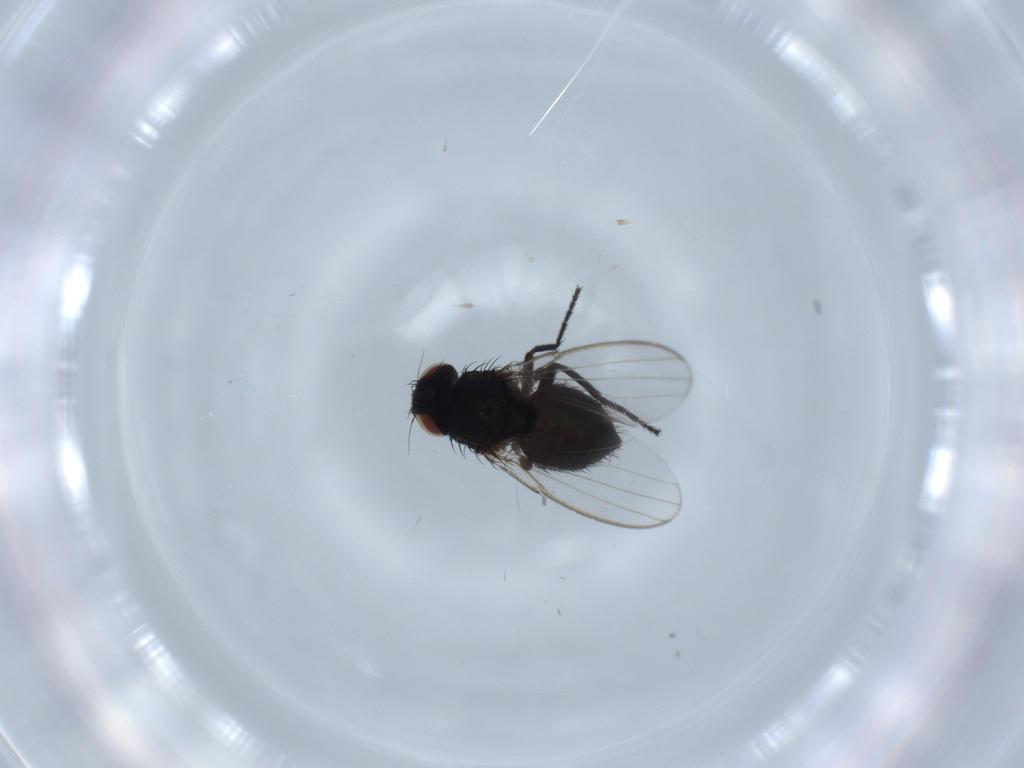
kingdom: Animalia
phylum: Arthropoda
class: Insecta
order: Diptera
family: Milichiidae
